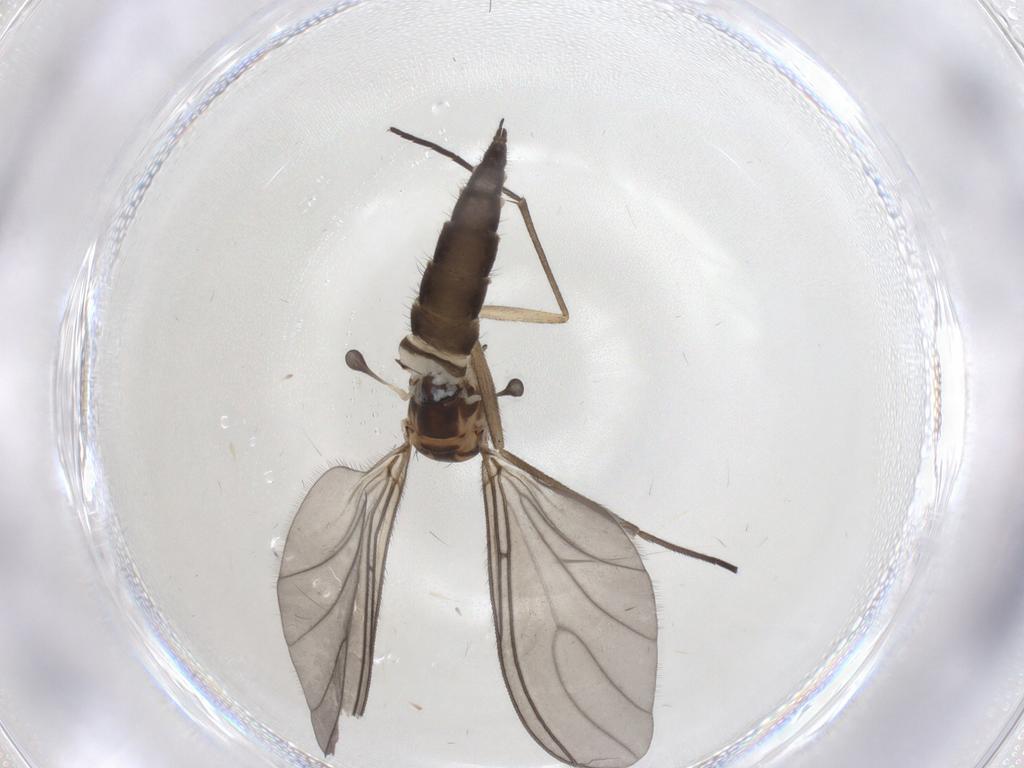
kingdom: Animalia
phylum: Arthropoda
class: Insecta
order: Diptera
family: Sciaridae
